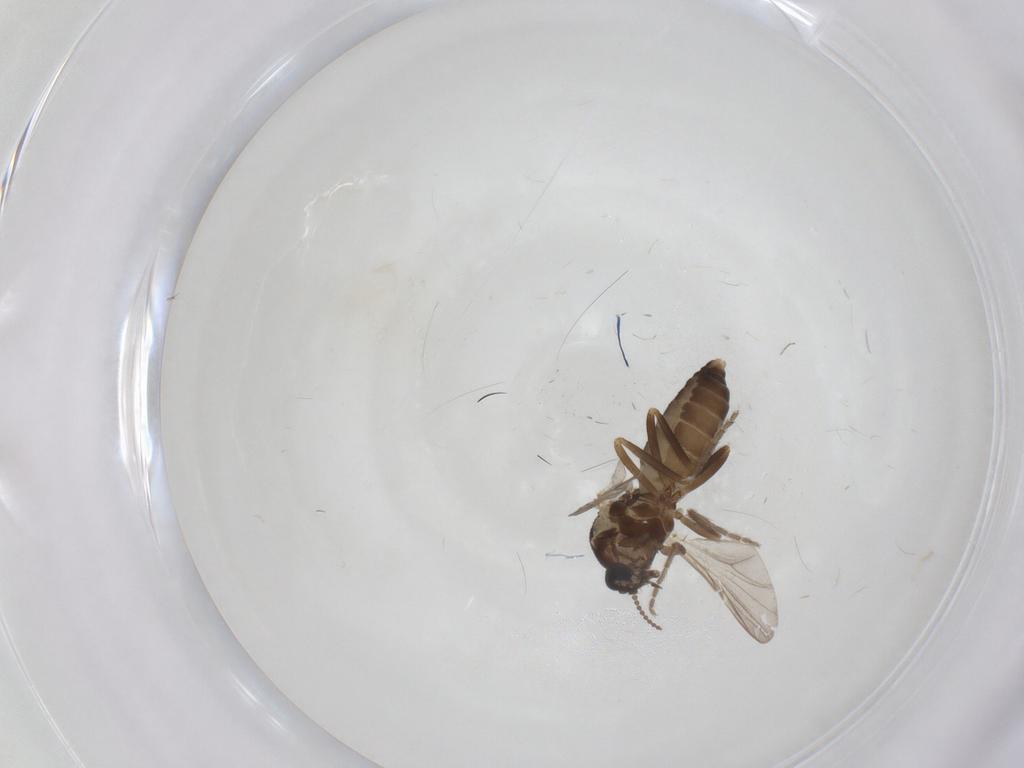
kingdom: Animalia
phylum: Arthropoda
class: Insecta
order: Diptera
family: Ceratopogonidae
